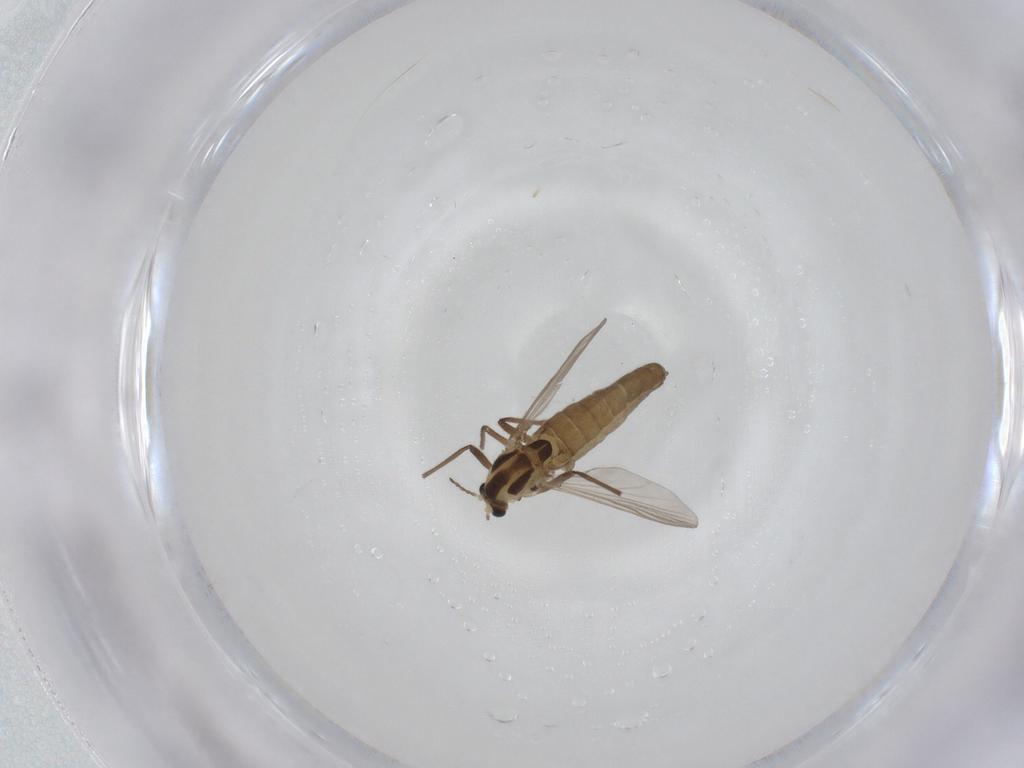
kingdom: Animalia
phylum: Arthropoda
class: Insecta
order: Diptera
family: Chironomidae
